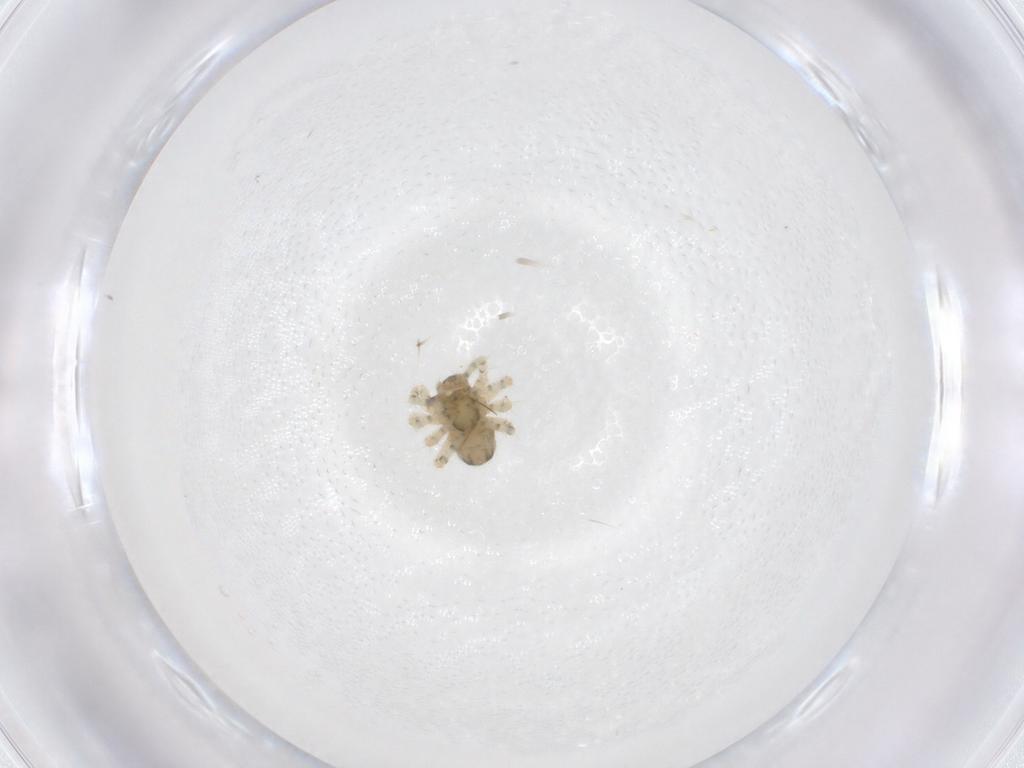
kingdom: Animalia
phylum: Arthropoda
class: Arachnida
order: Araneae
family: Theridiidae
